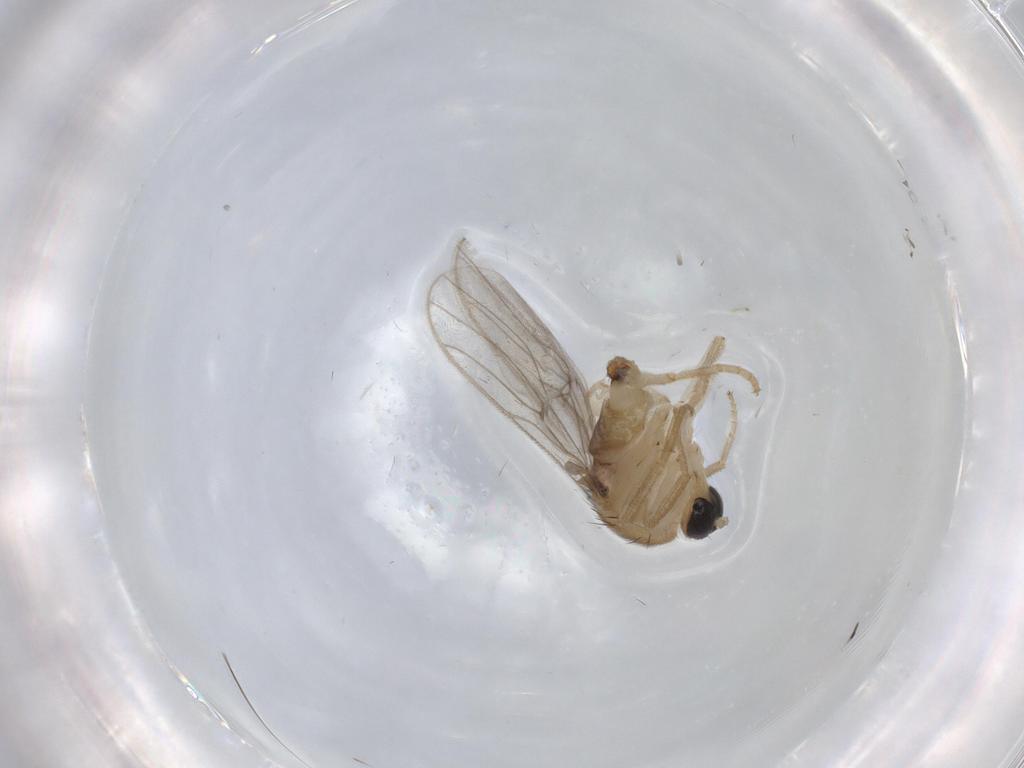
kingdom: Animalia
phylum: Arthropoda
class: Insecta
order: Diptera
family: Hybotidae
